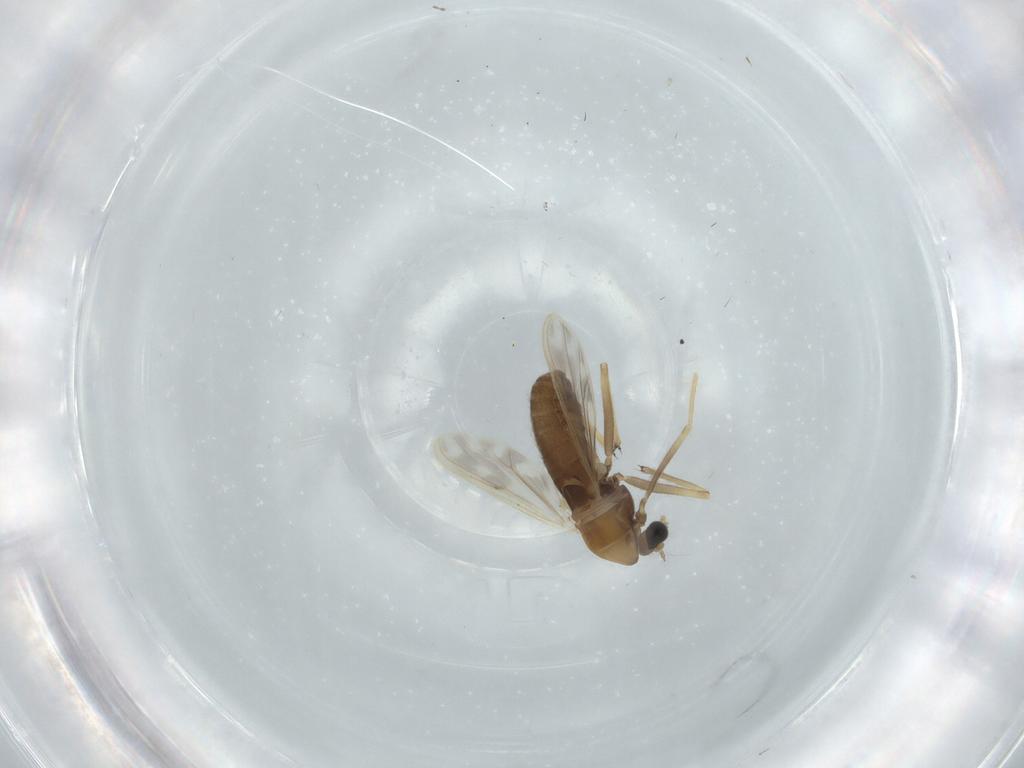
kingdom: Animalia
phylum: Arthropoda
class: Insecta
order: Diptera
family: Chironomidae
